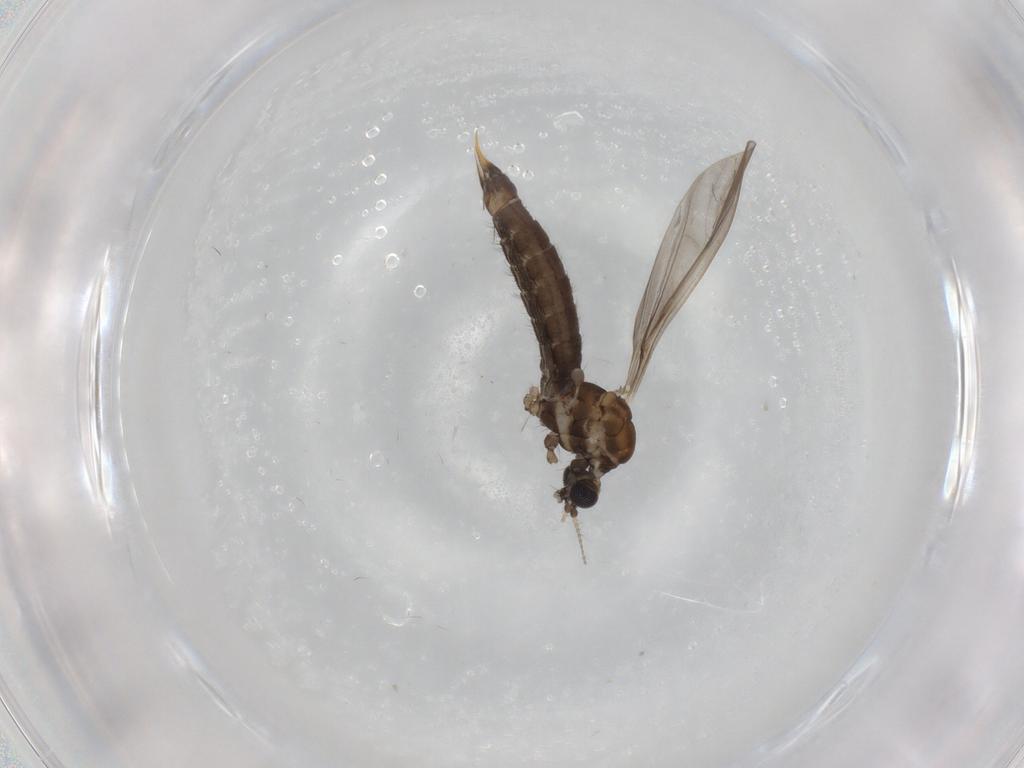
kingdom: Animalia
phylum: Arthropoda
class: Insecta
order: Diptera
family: Limoniidae
